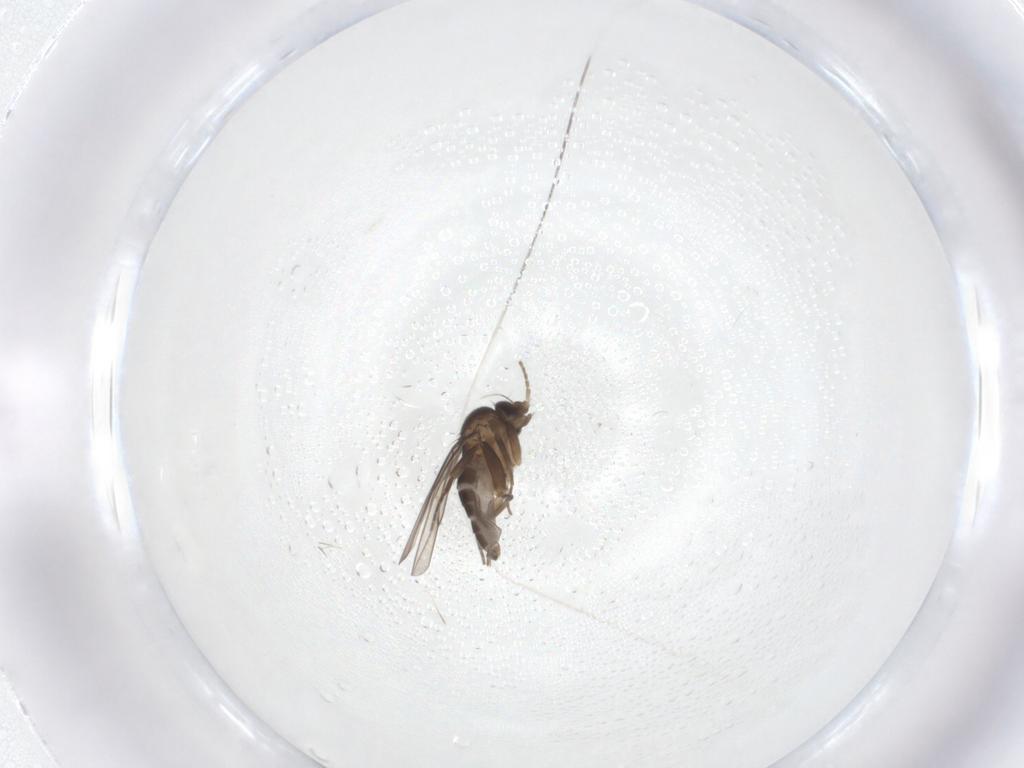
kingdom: Animalia
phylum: Arthropoda
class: Insecta
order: Diptera
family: Phoridae
